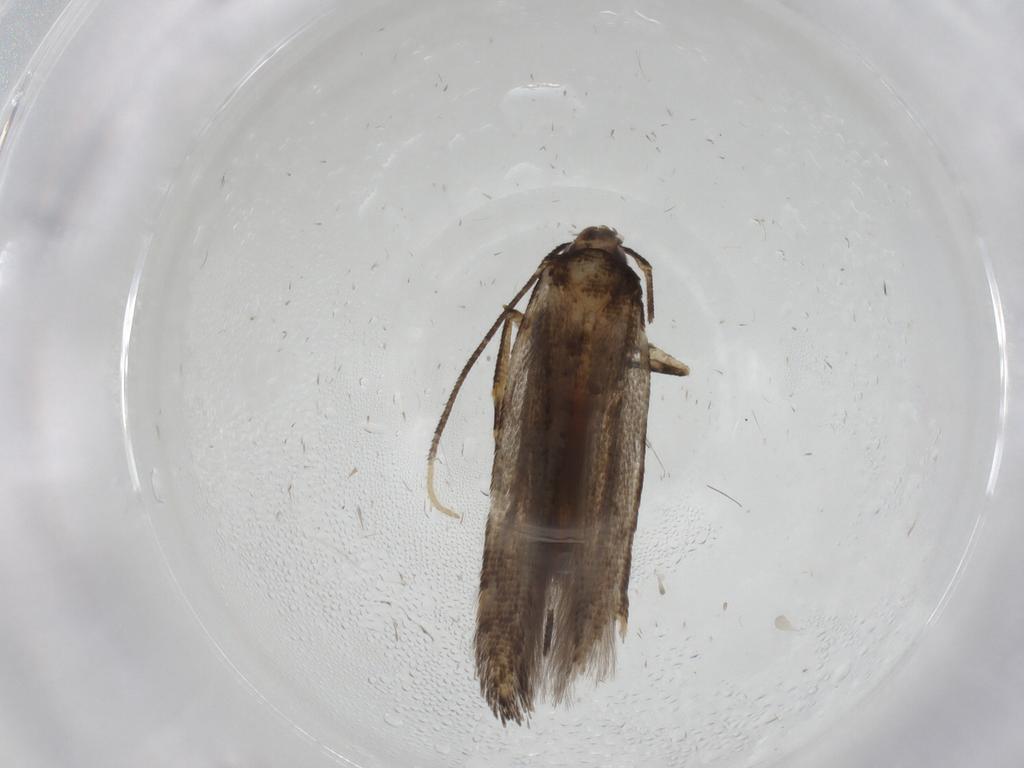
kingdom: Animalia
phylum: Arthropoda
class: Insecta
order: Lepidoptera
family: Cosmopterigidae
